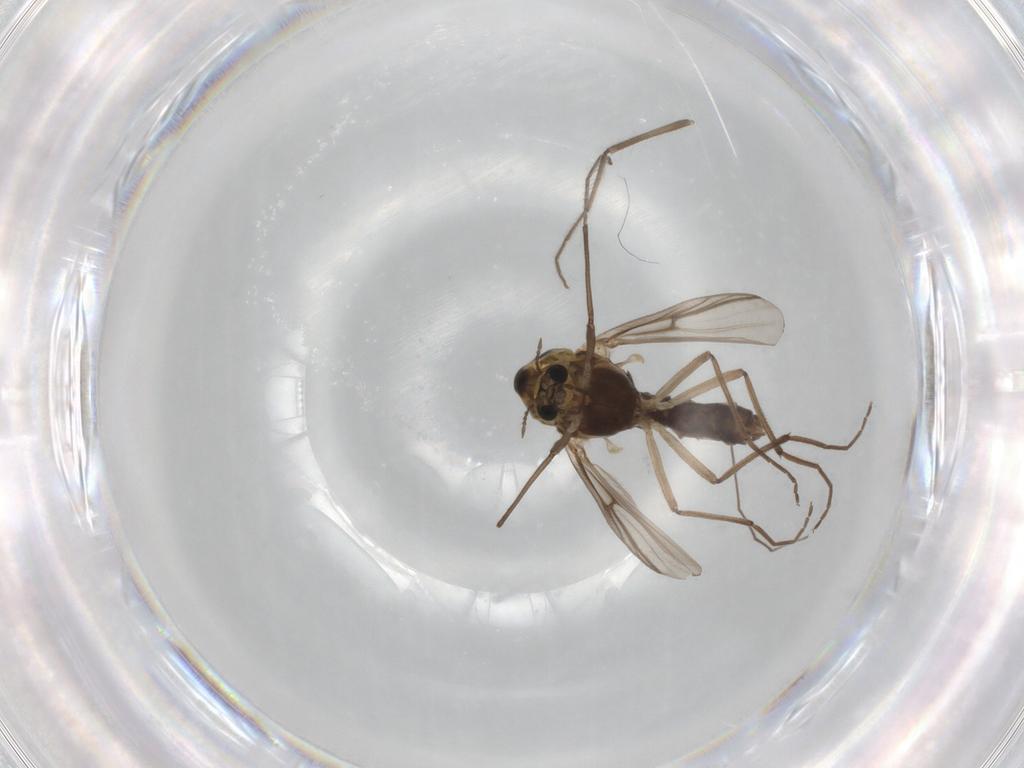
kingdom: Animalia
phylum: Arthropoda
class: Insecta
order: Diptera
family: Chironomidae
